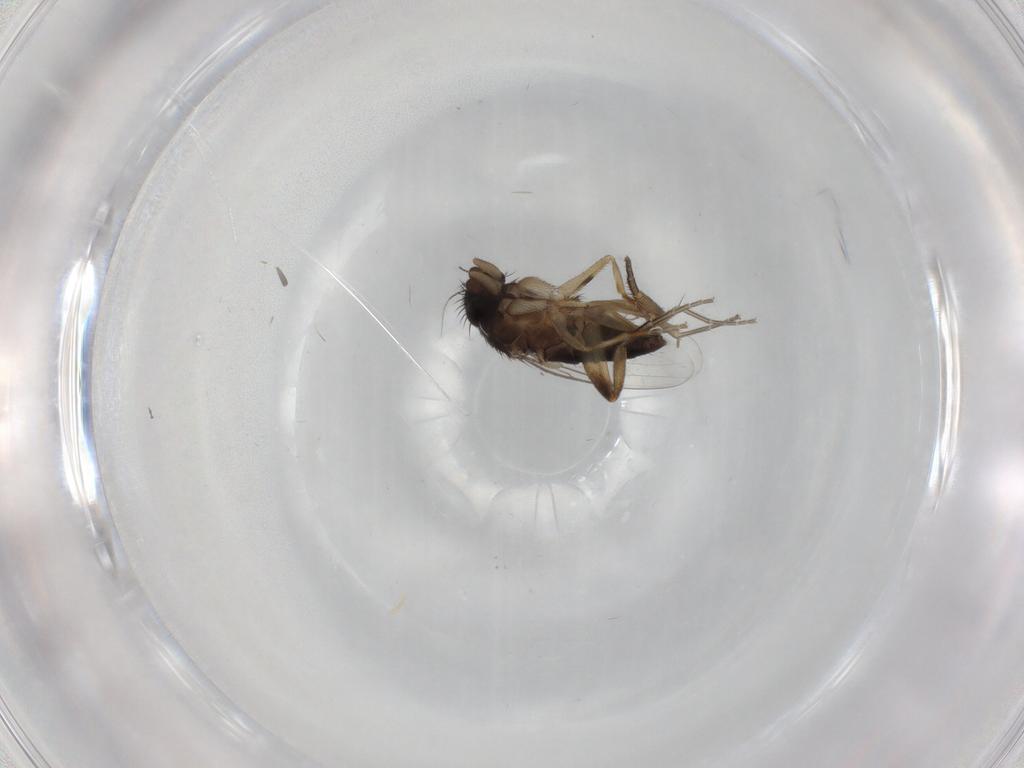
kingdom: Animalia
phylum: Arthropoda
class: Insecta
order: Diptera
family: Phoridae
